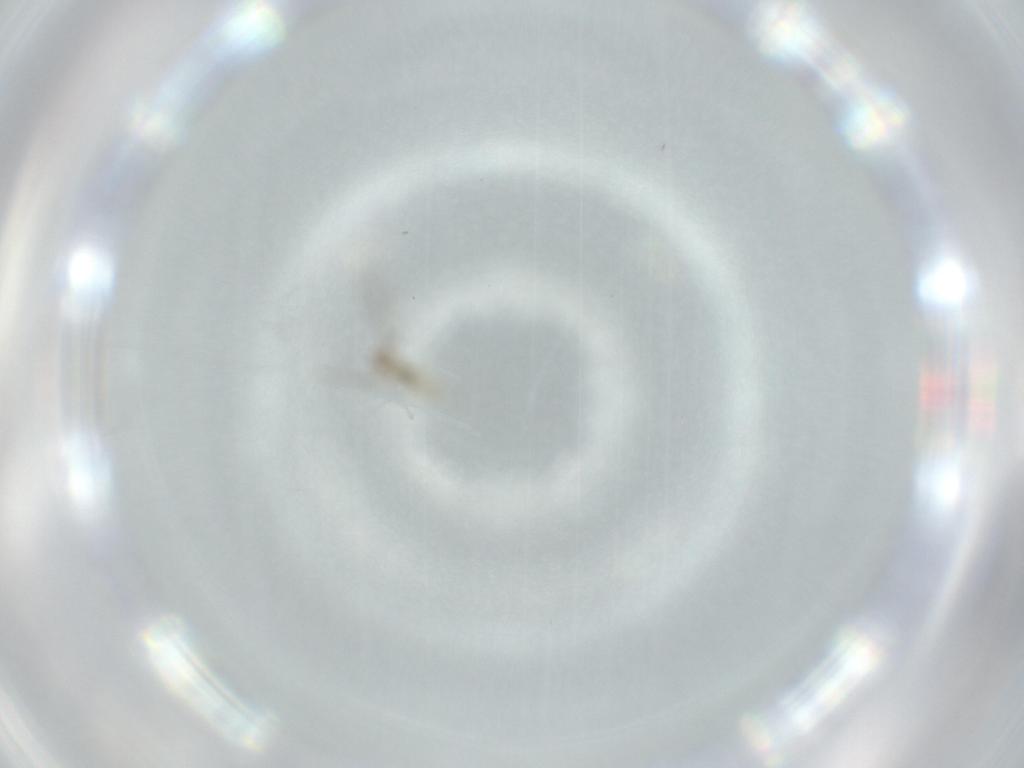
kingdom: Animalia
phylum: Arthropoda
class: Insecta
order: Diptera
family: Cecidomyiidae
